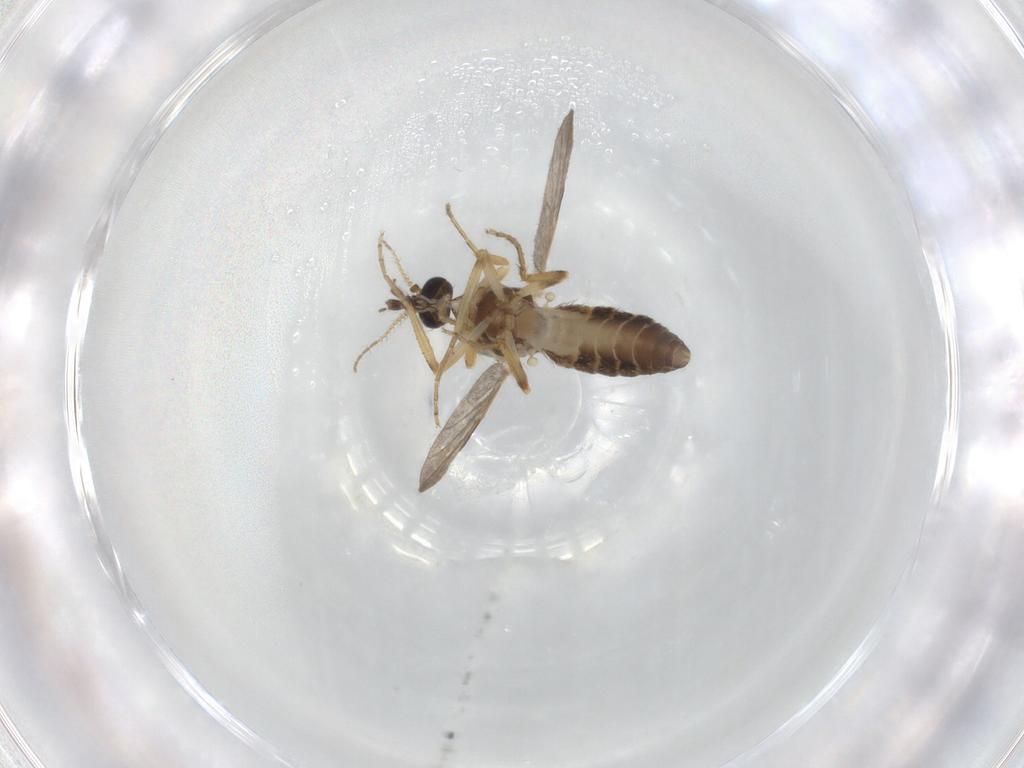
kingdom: Animalia
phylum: Arthropoda
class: Insecta
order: Diptera
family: Ceratopogonidae
